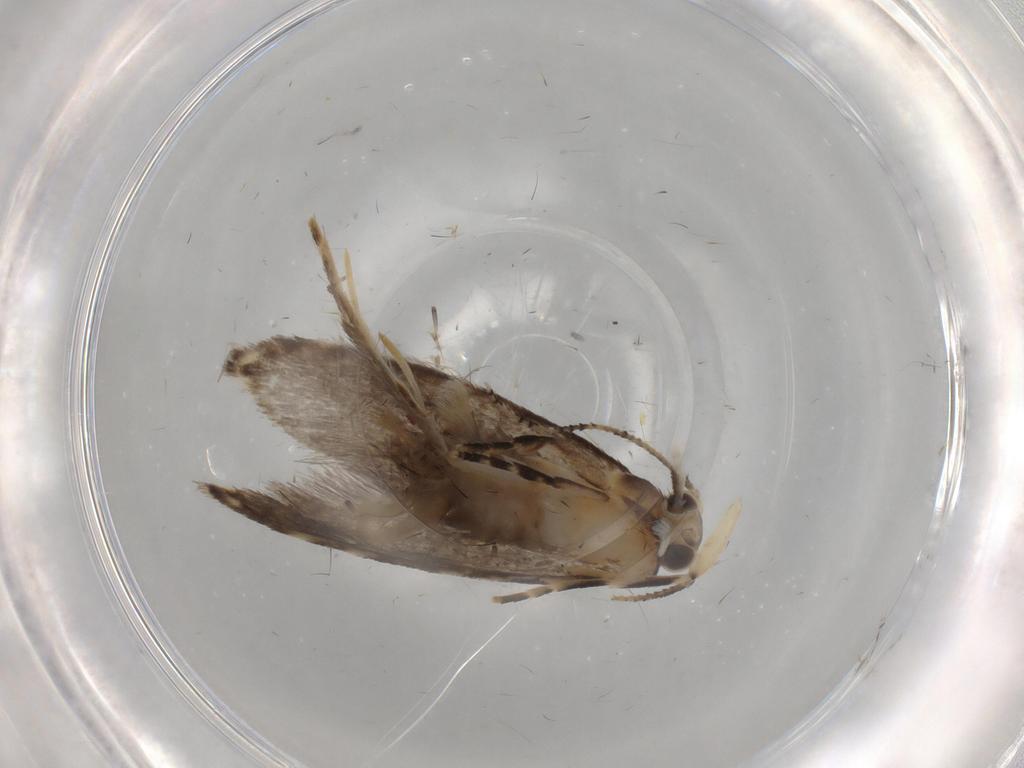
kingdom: Animalia
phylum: Arthropoda
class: Insecta
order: Lepidoptera
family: Tineidae
